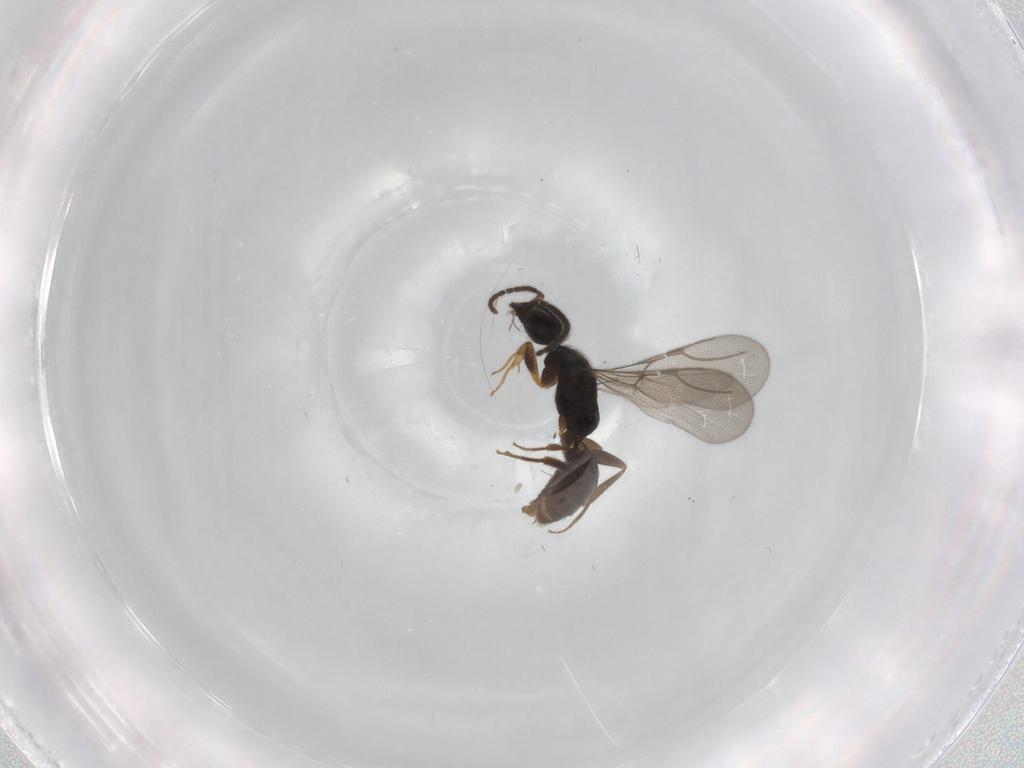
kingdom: Animalia
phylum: Arthropoda
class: Insecta
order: Hymenoptera
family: Bethylidae
